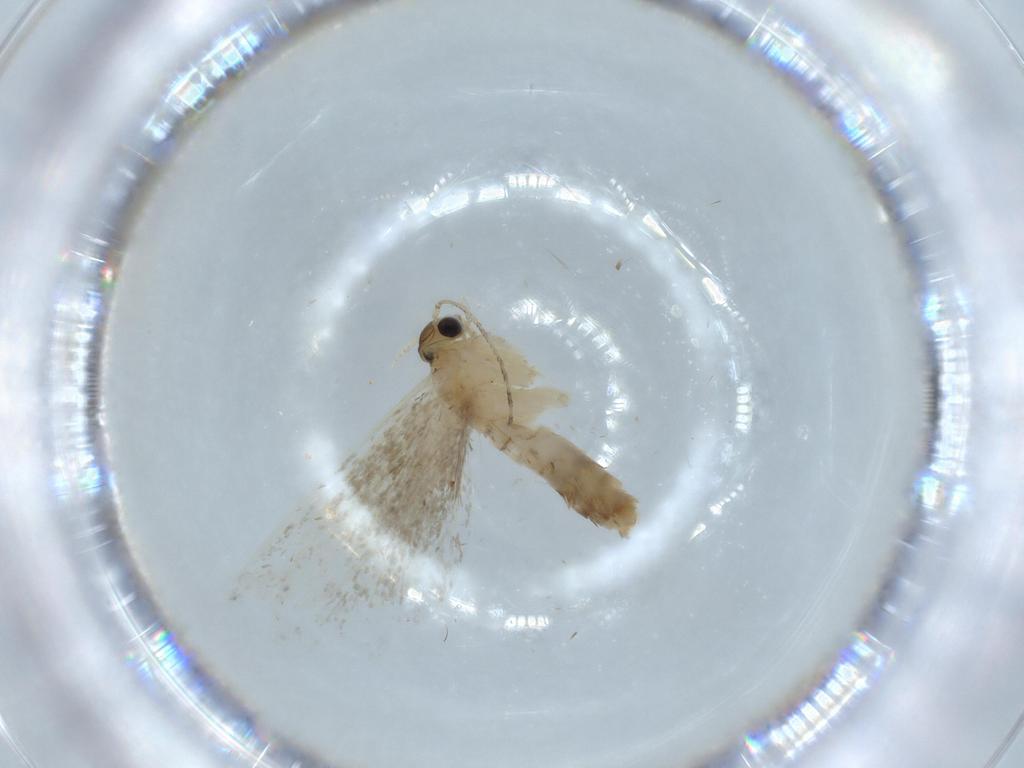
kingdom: Animalia
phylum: Arthropoda
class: Insecta
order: Lepidoptera
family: Tineidae
